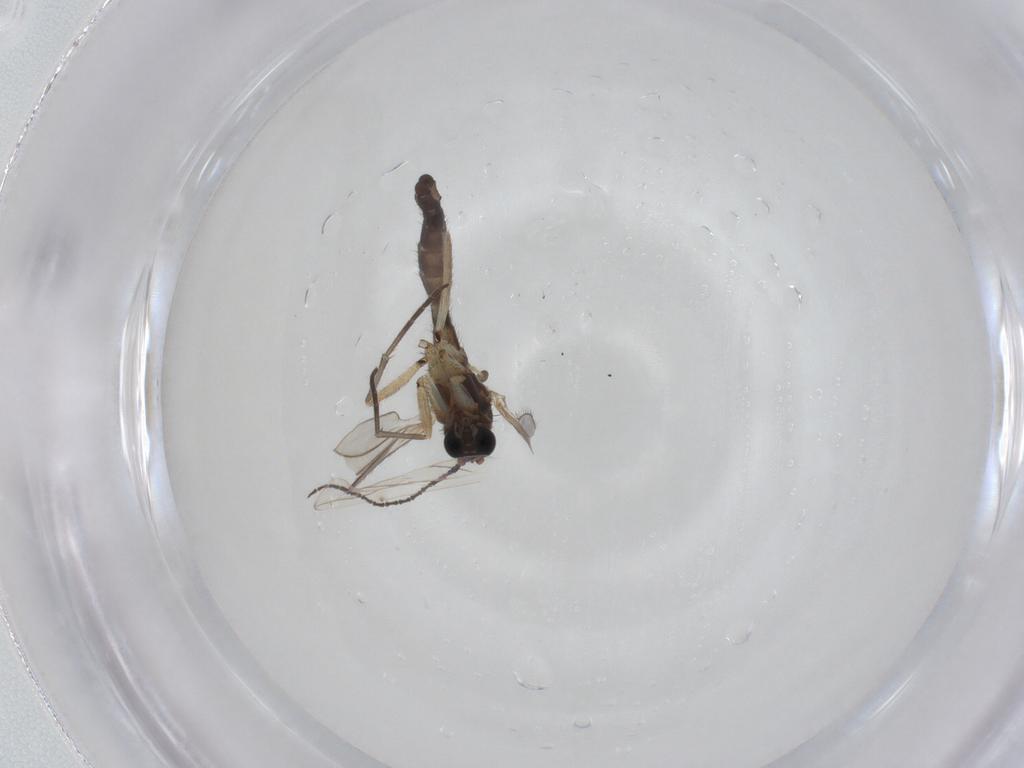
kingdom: Animalia
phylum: Arthropoda
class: Insecta
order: Diptera
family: Sciaridae
